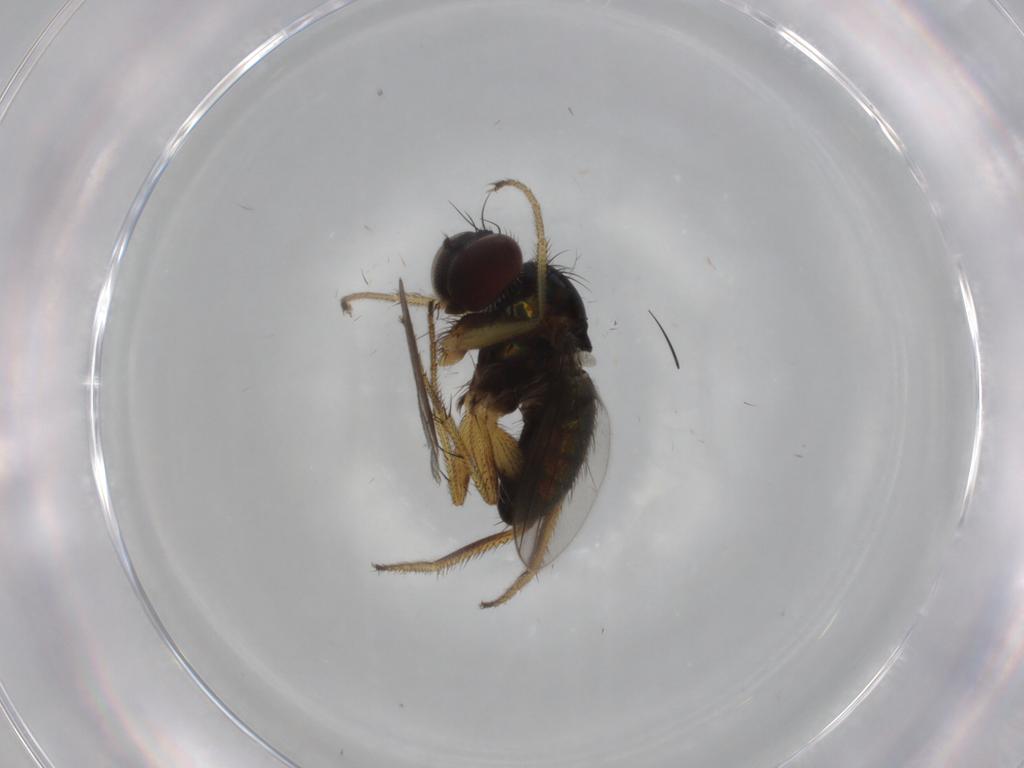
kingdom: Animalia
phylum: Arthropoda
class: Insecta
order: Diptera
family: Dolichopodidae
